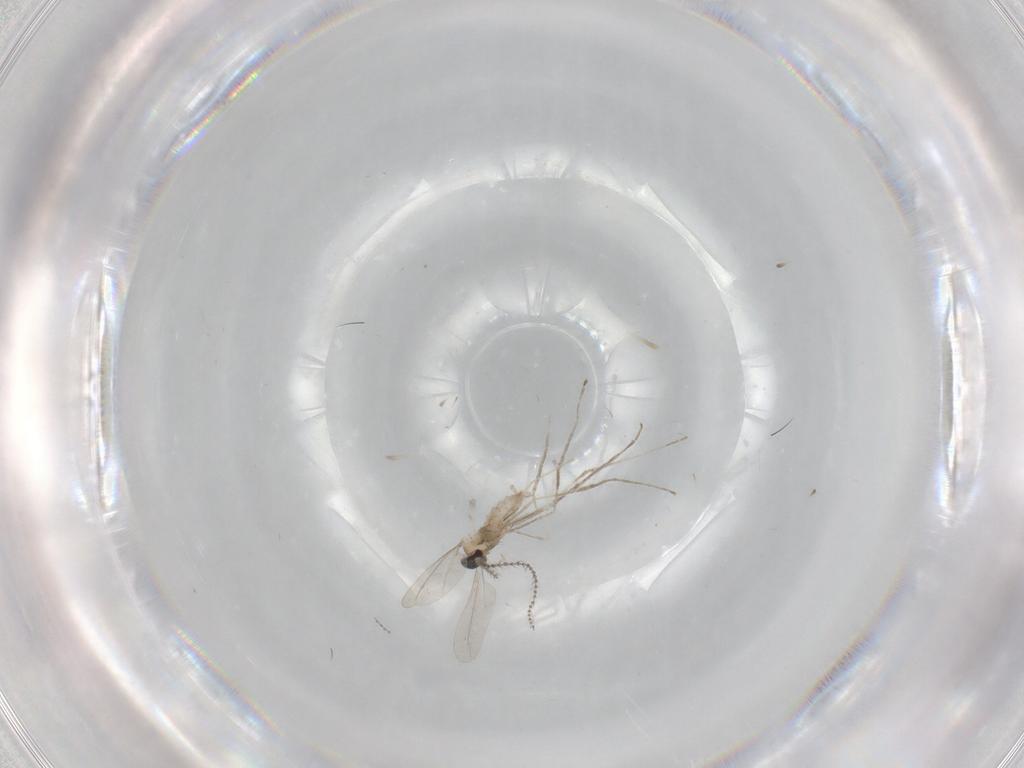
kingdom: Animalia
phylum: Arthropoda
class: Insecta
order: Diptera
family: Cecidomyiidae
